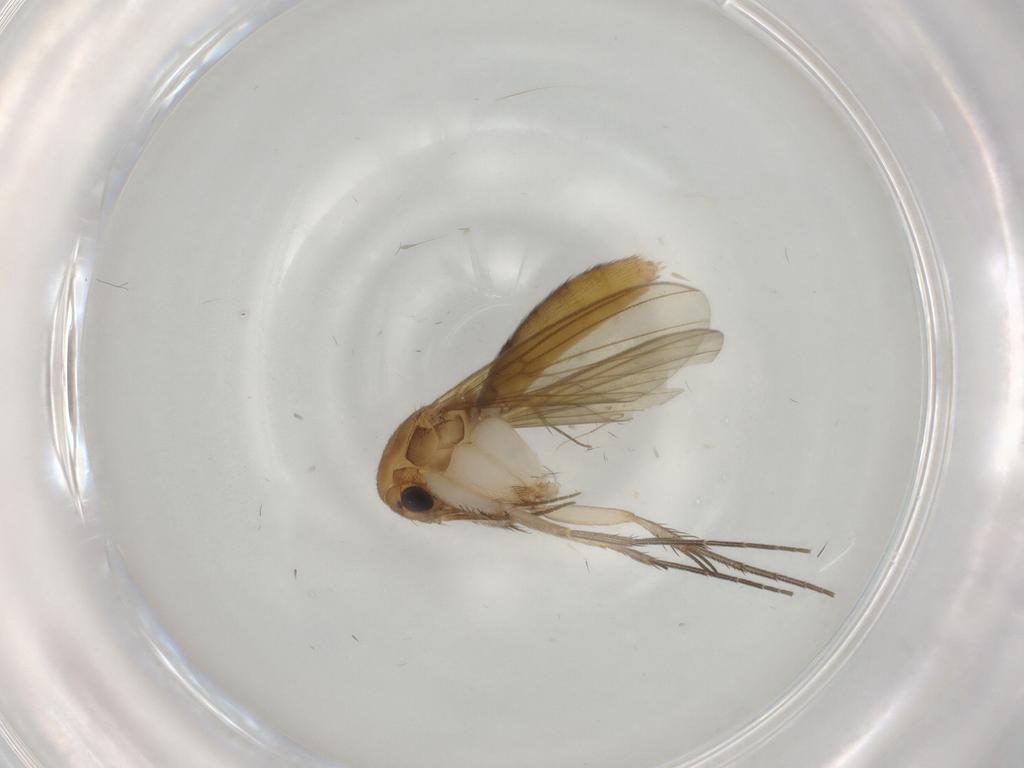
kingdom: Animalia
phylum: Arthropoda
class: Insecta
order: Diptera
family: Mycetophilidae
